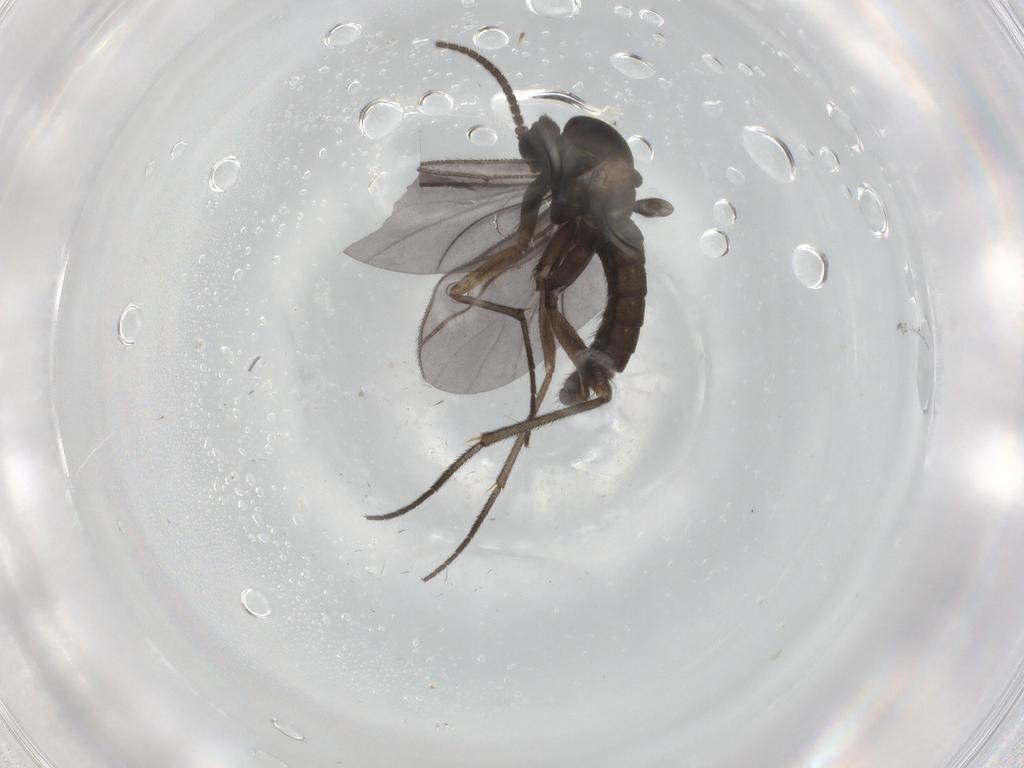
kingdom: Animalia
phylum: Arthropoda
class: Insecta
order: Diptera
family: Sciaridae
